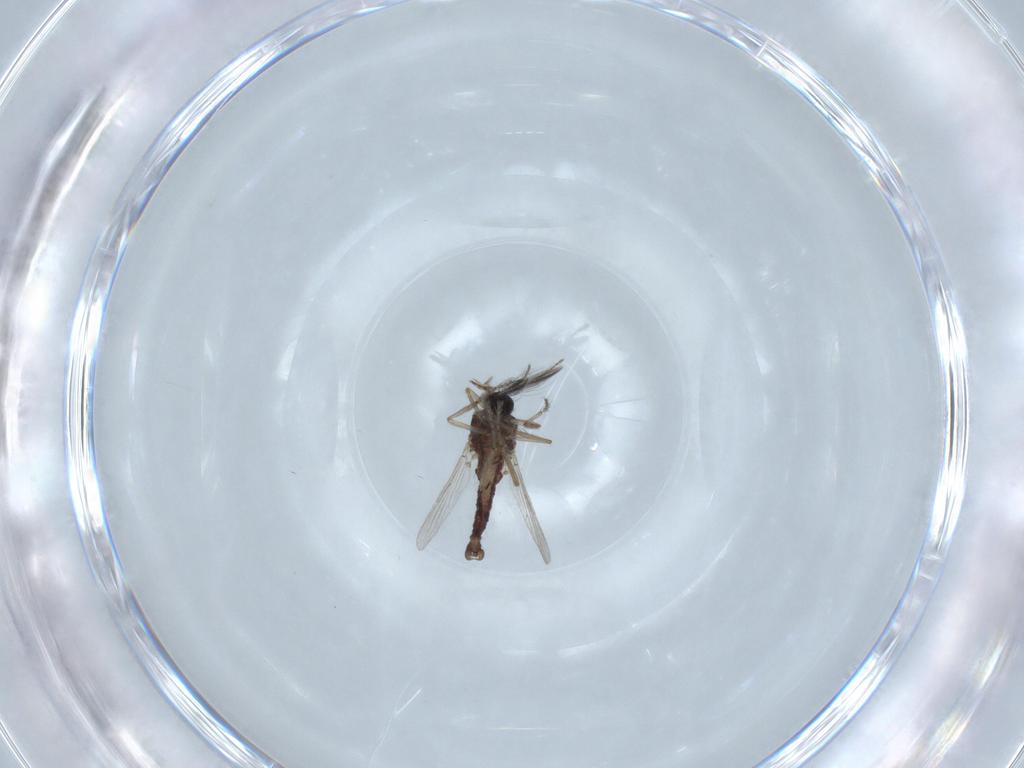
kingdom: Animalia
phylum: Arthropoda
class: Insecta
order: Diptera
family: Ceratopogonidae
